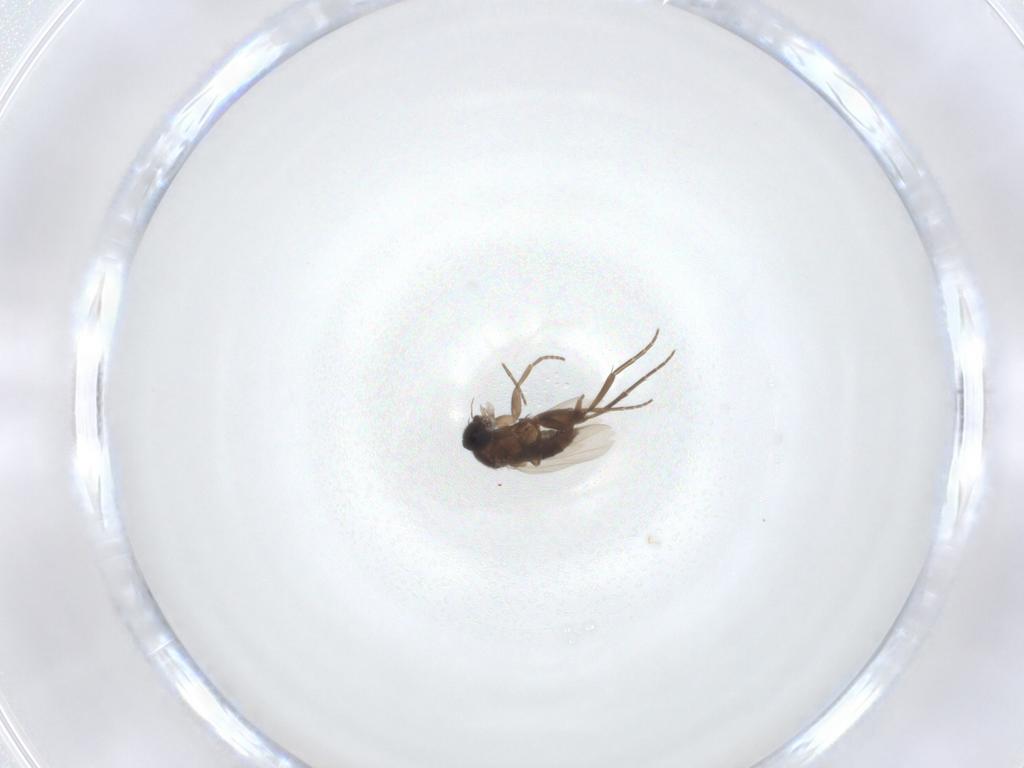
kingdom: Animalia
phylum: Arthropoda
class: Insecta
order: Diptera
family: Phoridae
